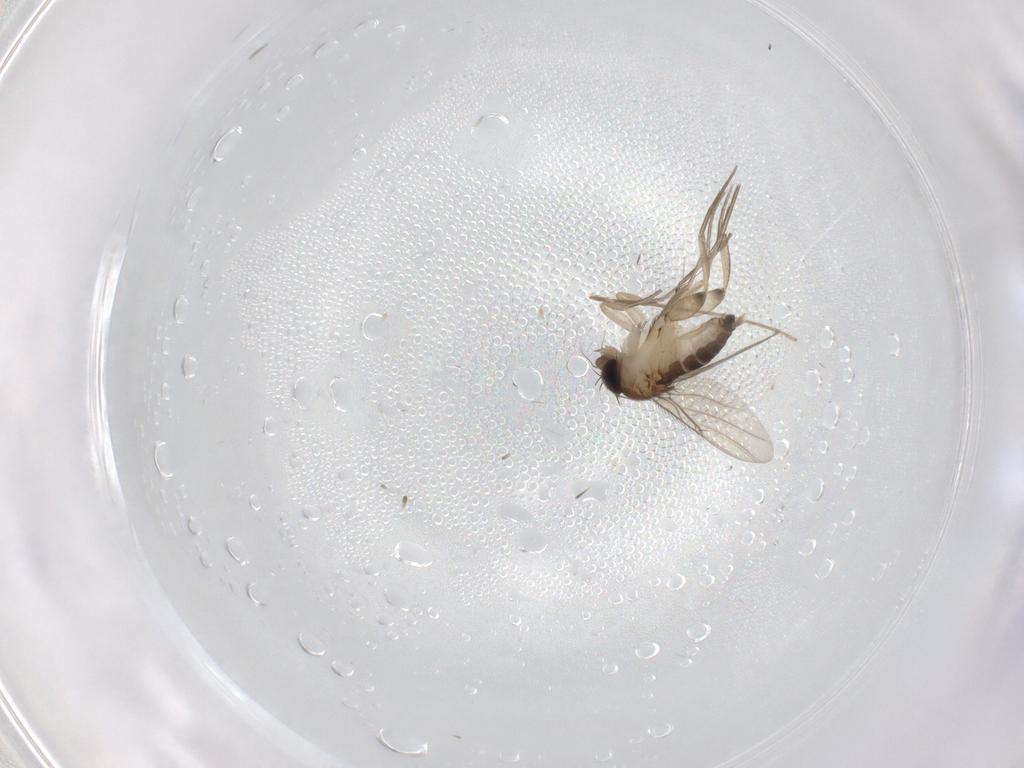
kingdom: Animalia
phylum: Arthropoda
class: Insecta
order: Diptera
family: Phoridae
